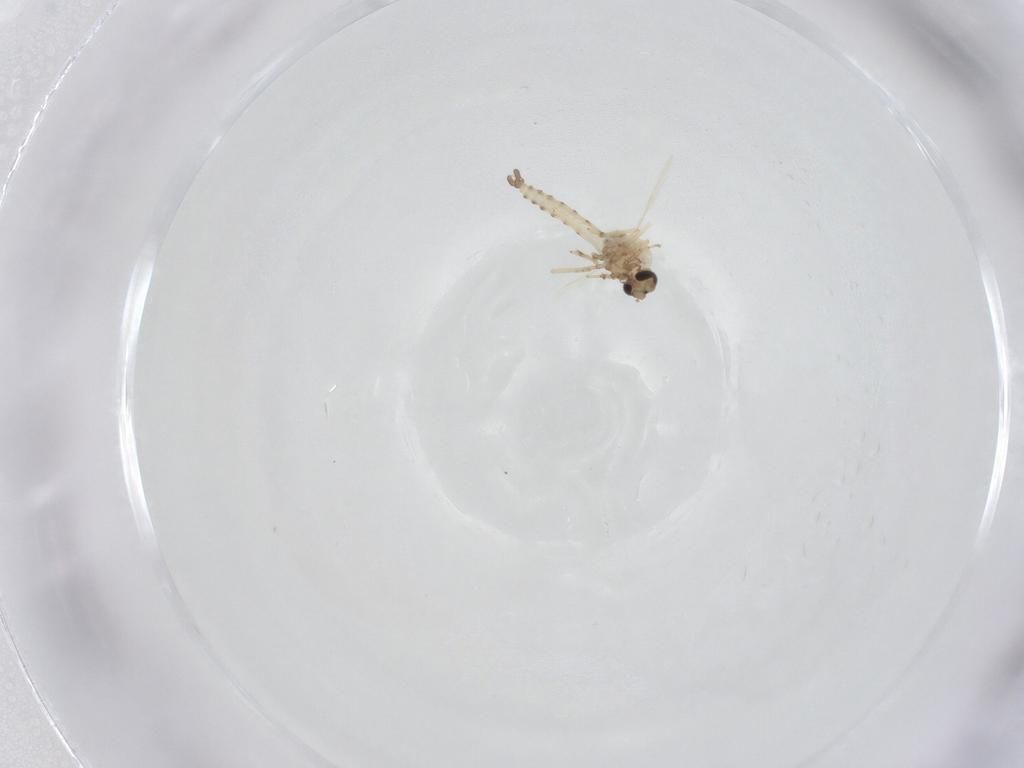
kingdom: Animalia
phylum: Arthropoda
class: Insecta
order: Diptera
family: Ceratopogonidae
